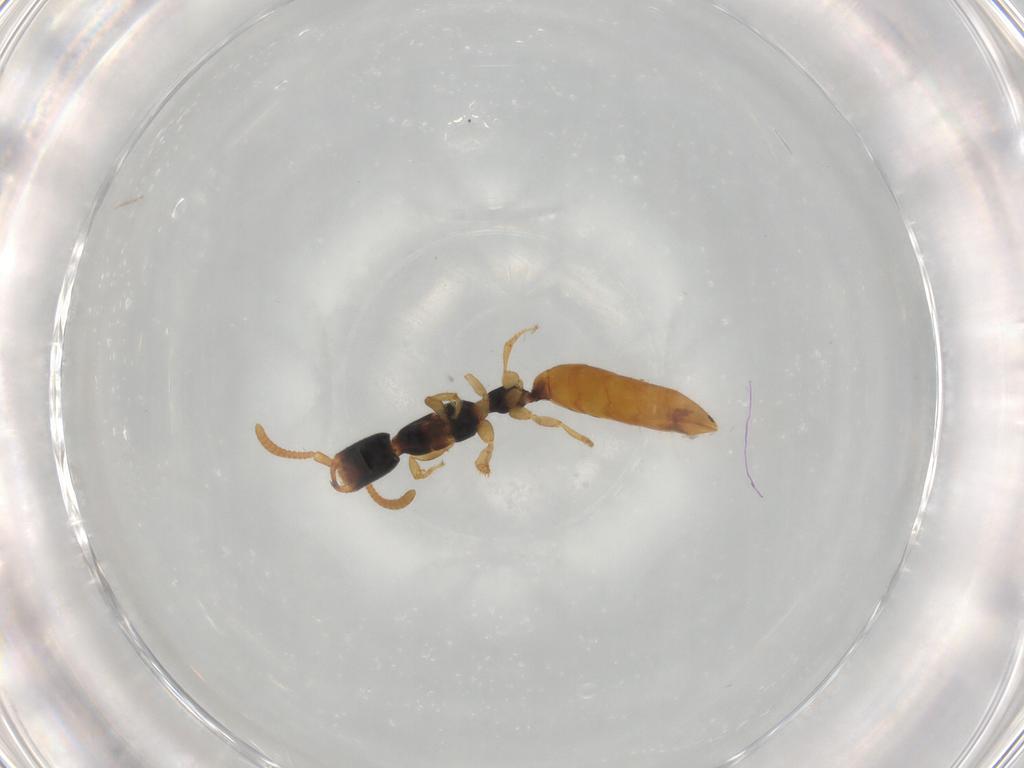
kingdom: Animalia
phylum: Arthropoda
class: Insecta
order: Hymenoptera
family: Bethylidae
